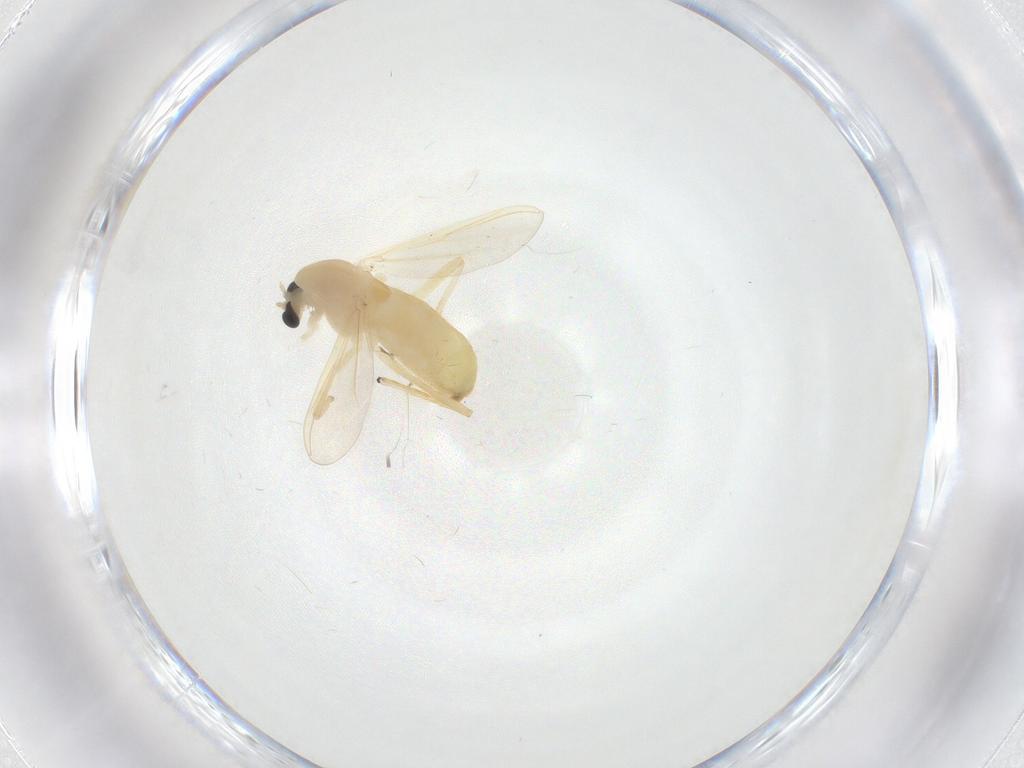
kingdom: Animalia
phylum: Arthropoda
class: Insecta
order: Diptera
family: Chironomidae
